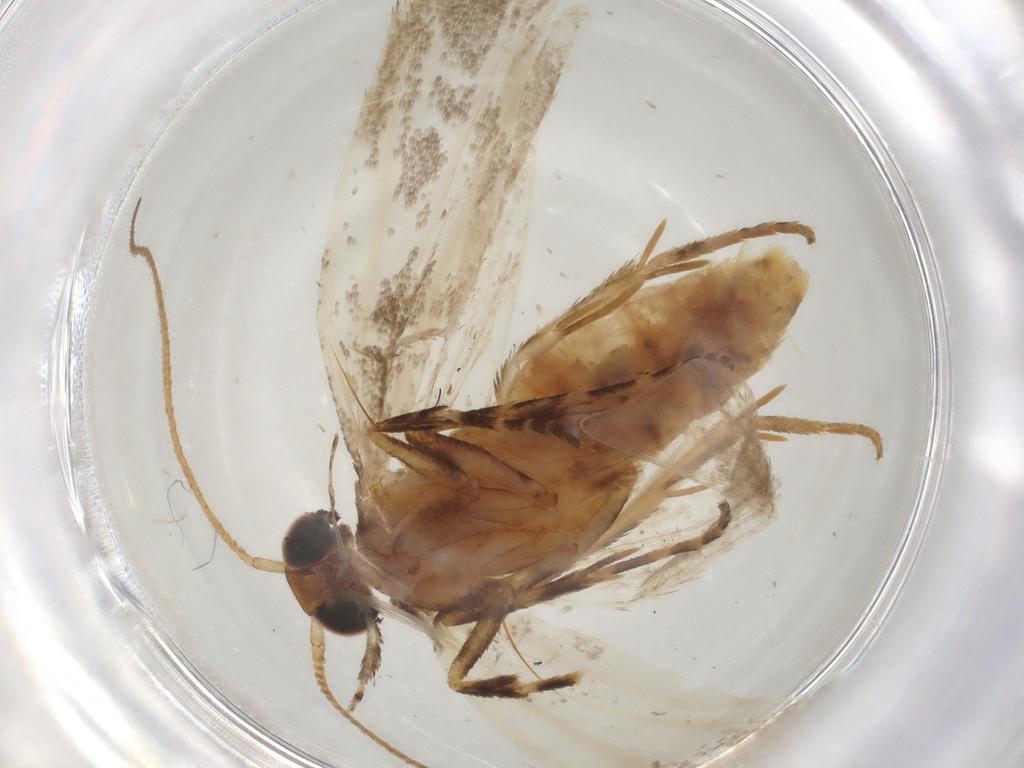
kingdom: Animalia
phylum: Arthropoda
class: Insecta
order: Lepidoptera
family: Gelechiidae
